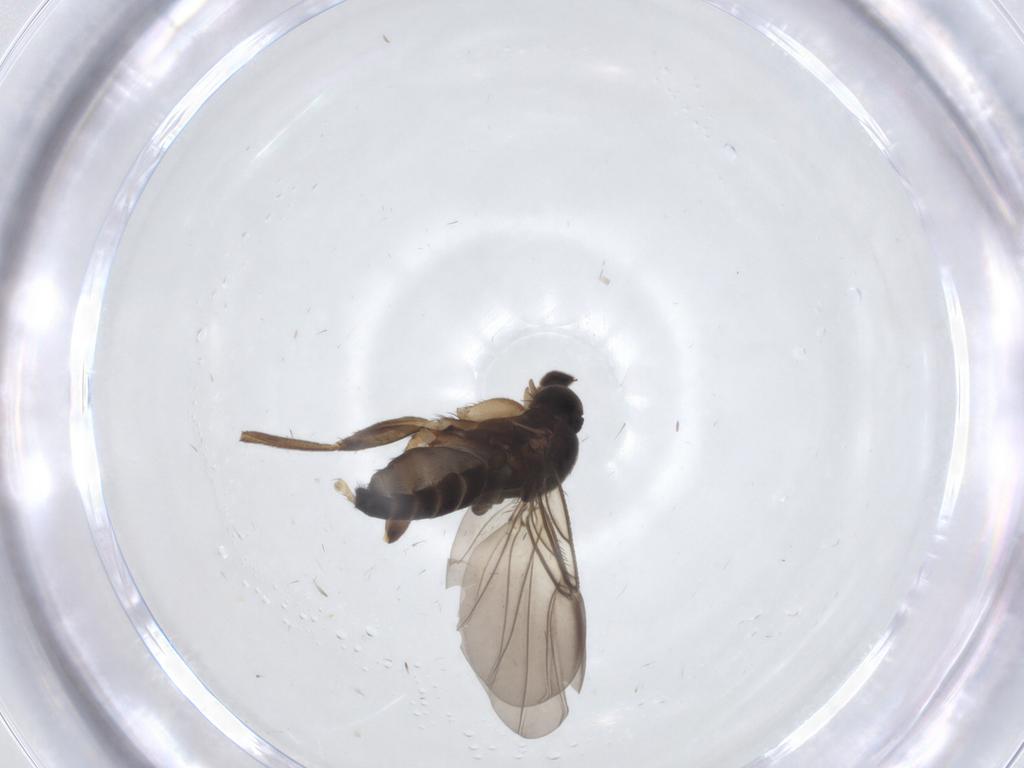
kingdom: Animalia
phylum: Arthropoda
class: Insecta
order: Diptera
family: Phoridae
